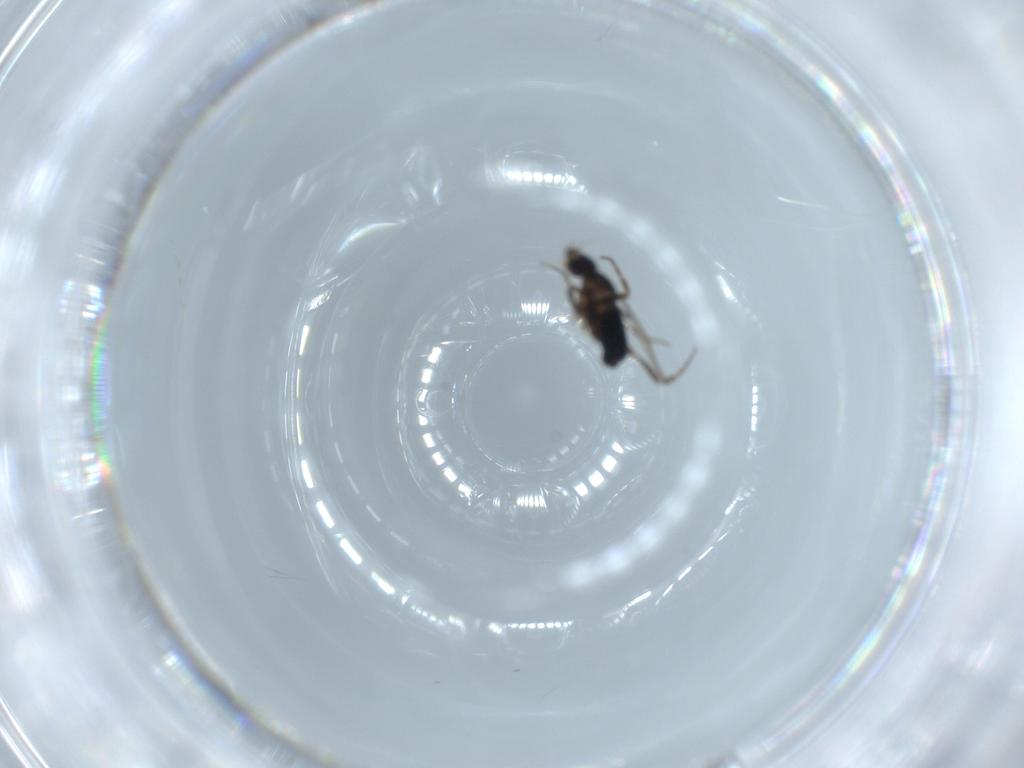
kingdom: Animalia
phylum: Arthropoda
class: Insecta
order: Diptera
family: Phoridae
